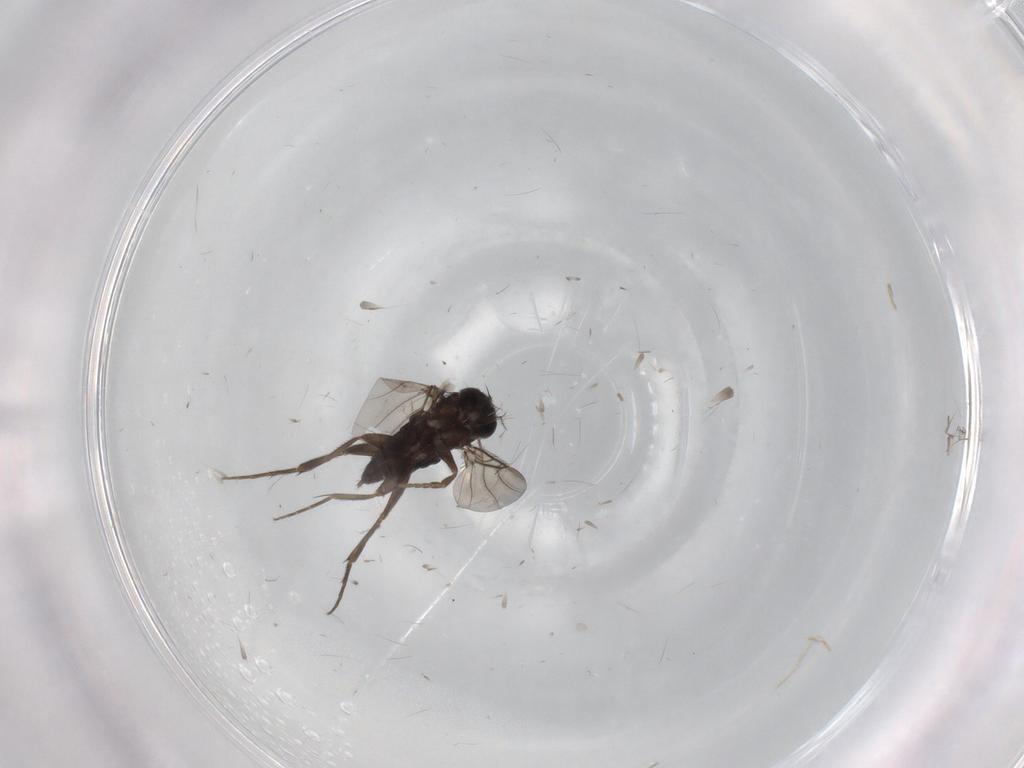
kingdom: Animalia
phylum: Arthropoda
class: Insecta
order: Diptera
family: Phoridae
